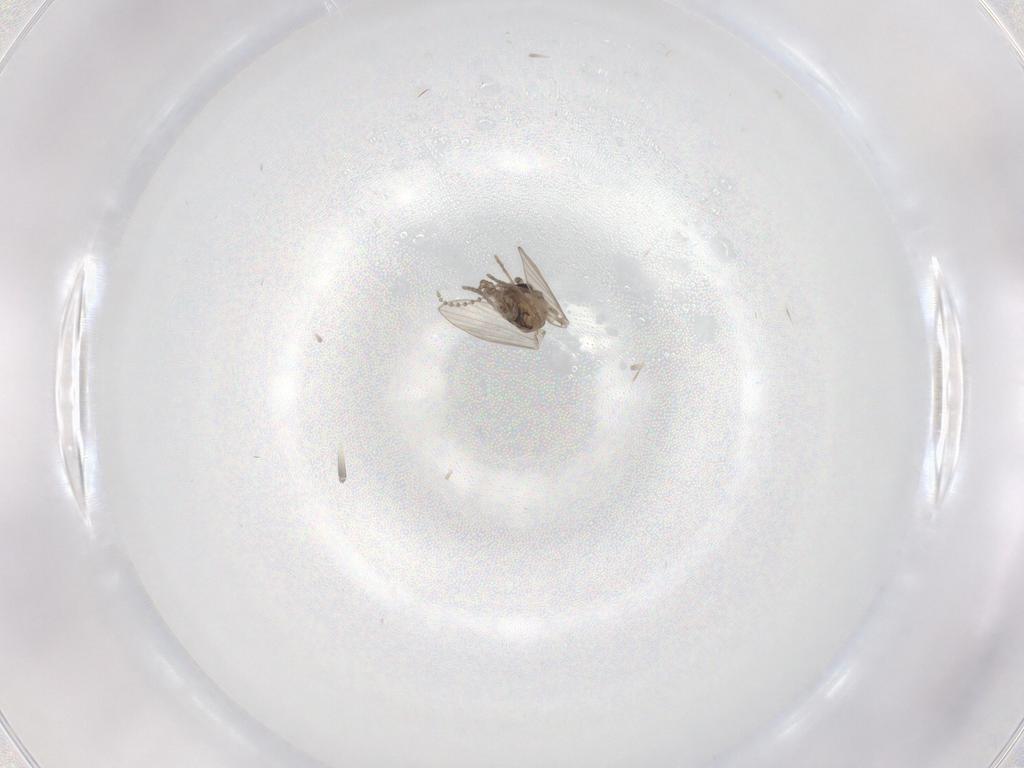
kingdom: Animalia
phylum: Arthropoda
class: Insecta
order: Diptera
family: Psychodidae
